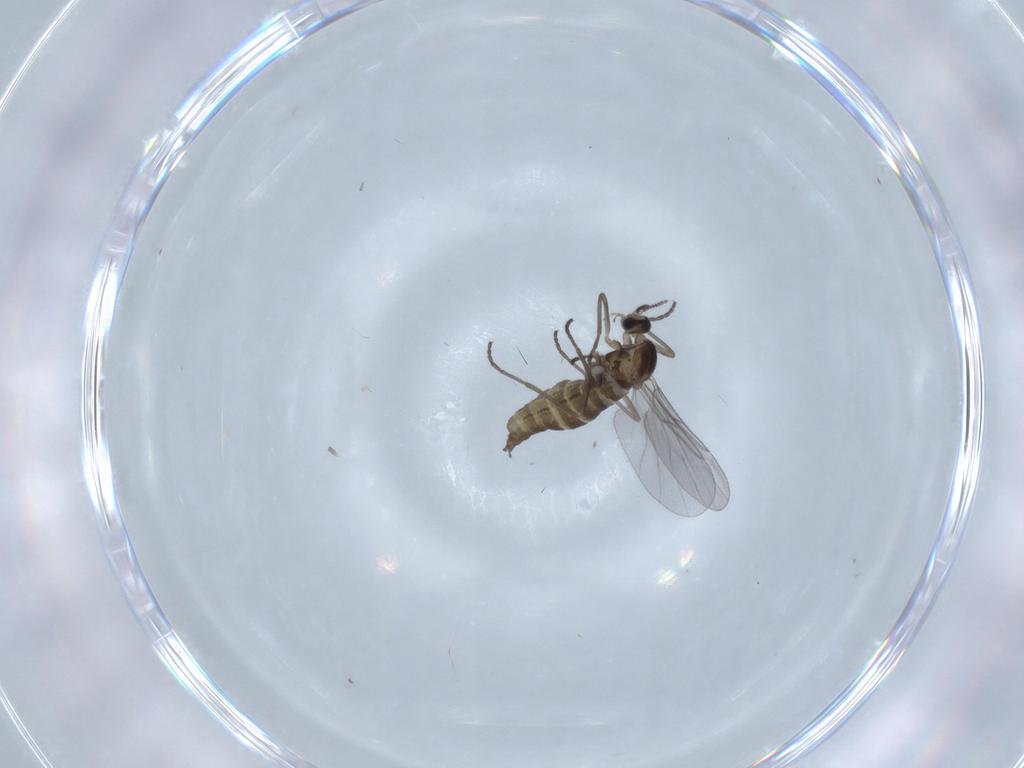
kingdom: Animalia
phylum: Arthropoda
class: Insecta
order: Diptera
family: Cecidomyiidae
